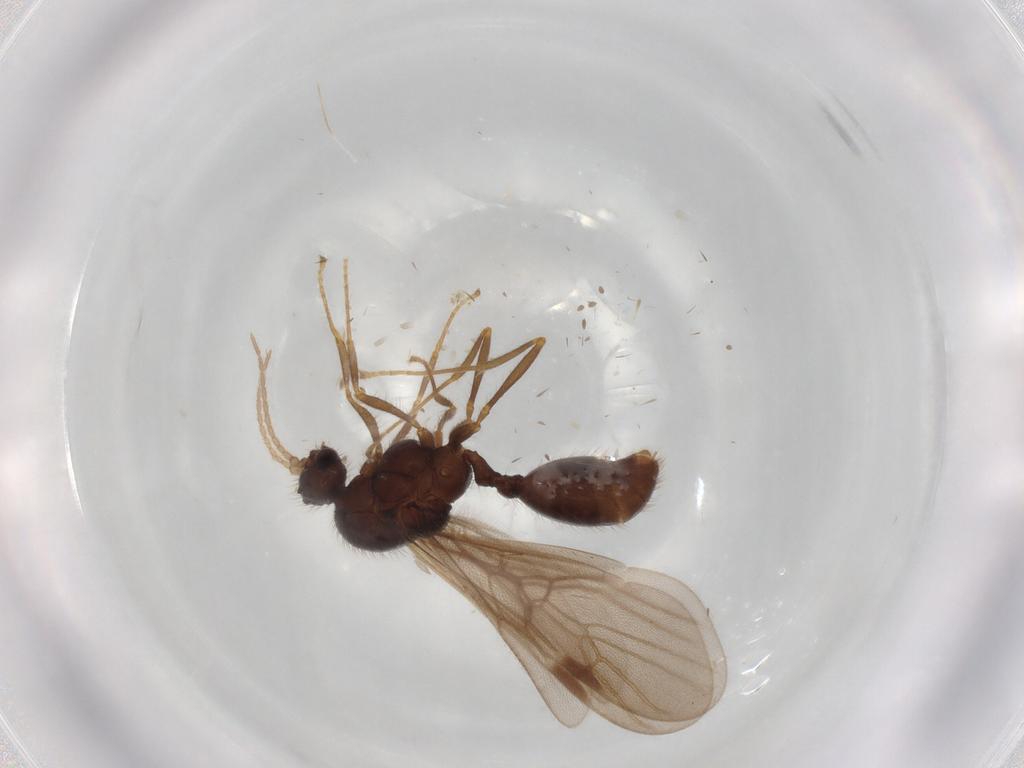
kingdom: Animalia
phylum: Arthropoda
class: Insecta
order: Hymenoptera
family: Formicidae
